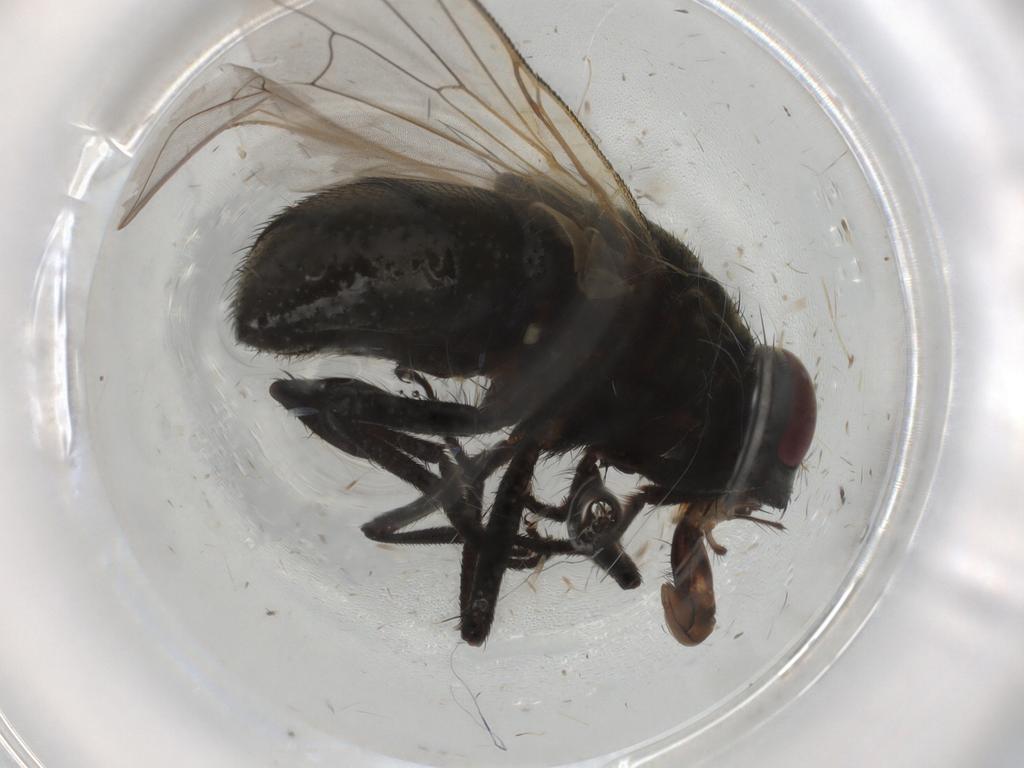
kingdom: Animalia
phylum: Arthropoda
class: Insecta
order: Diptera
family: Muscidae
